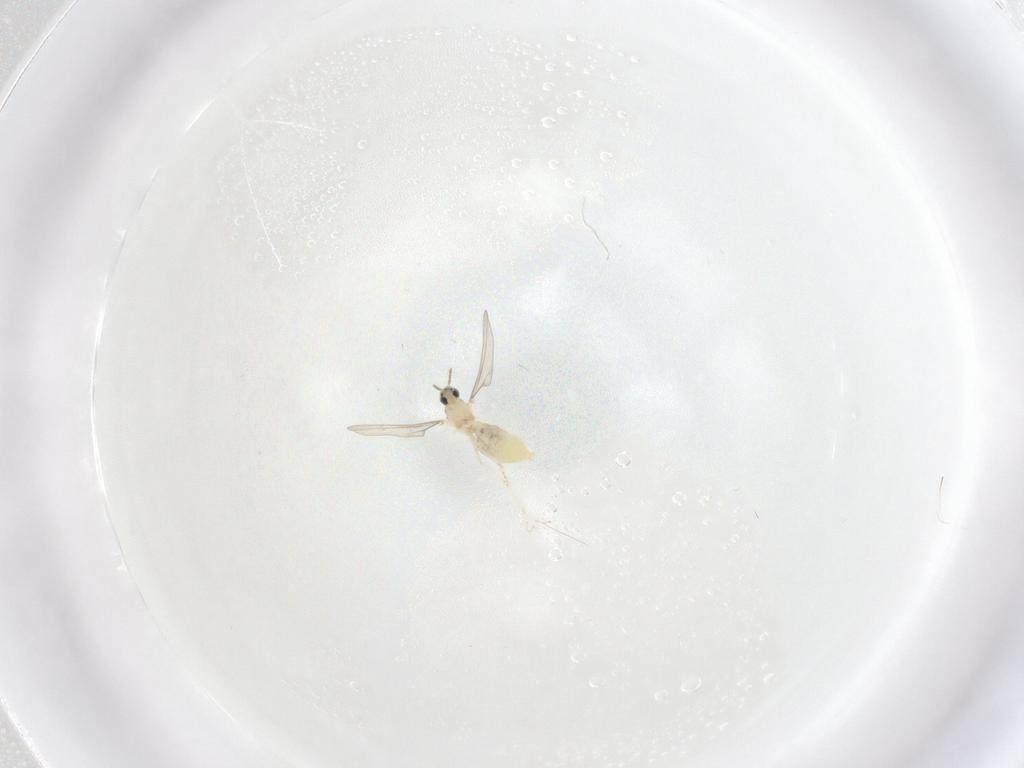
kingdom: Animalia
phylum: Arthropoda
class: Insecta
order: Diptera
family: Cecidomyiidae
